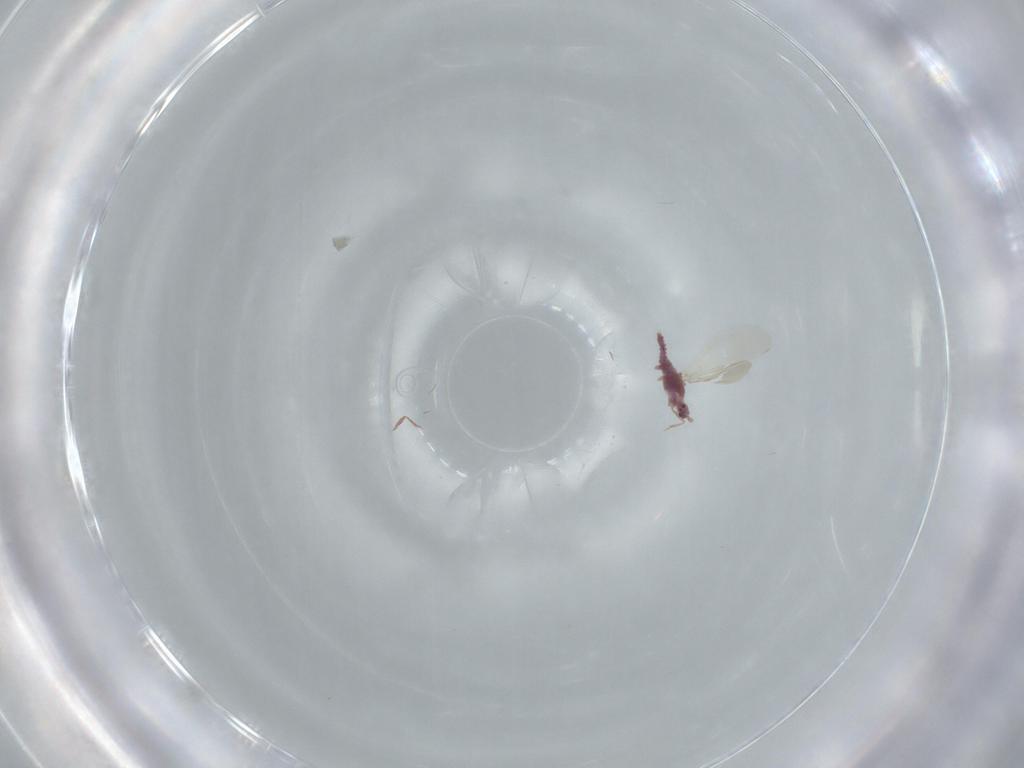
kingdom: Animalia
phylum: Arthropoda
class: Insecta
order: Hemiptera
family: Pseudococcidae
